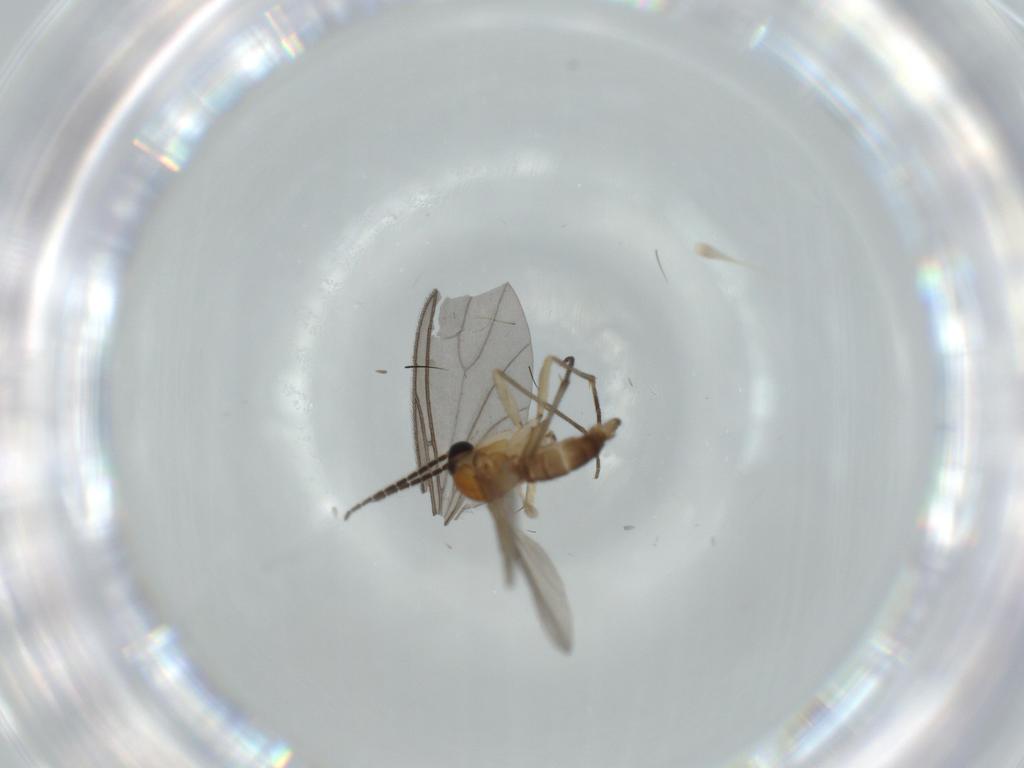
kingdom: Animalia
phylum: Arthropoda
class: Insecta
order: Diptera
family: Sciaridae
